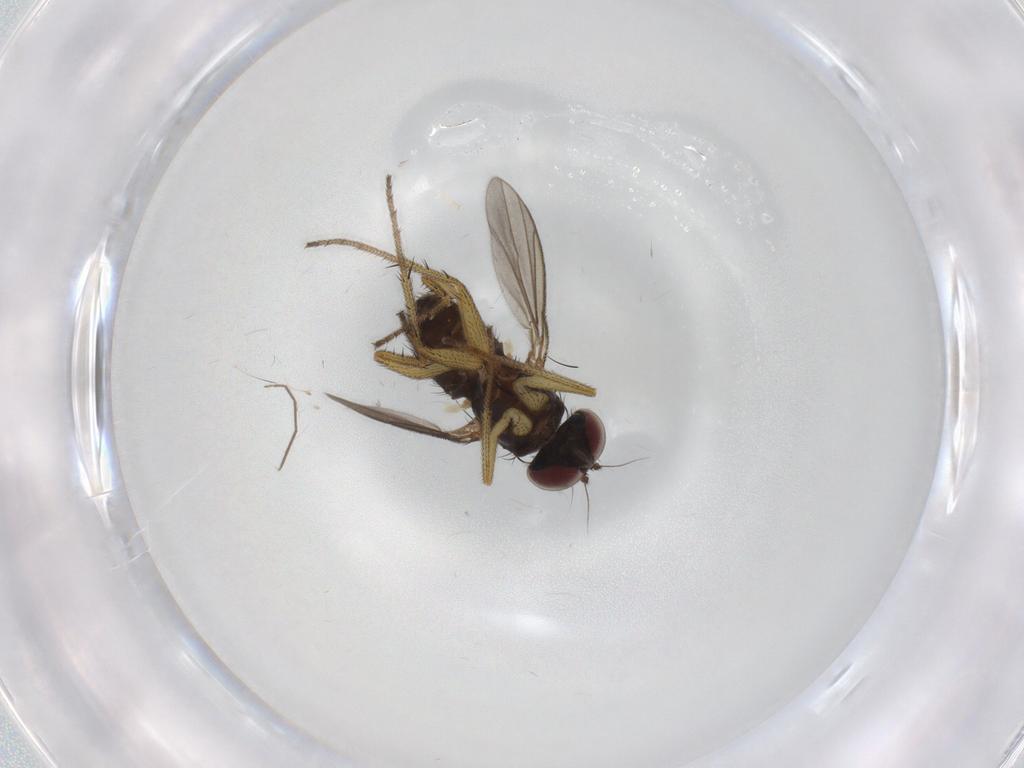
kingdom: Animalia
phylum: Arthropoda
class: Insecta
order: Diptera
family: Chironomidae
